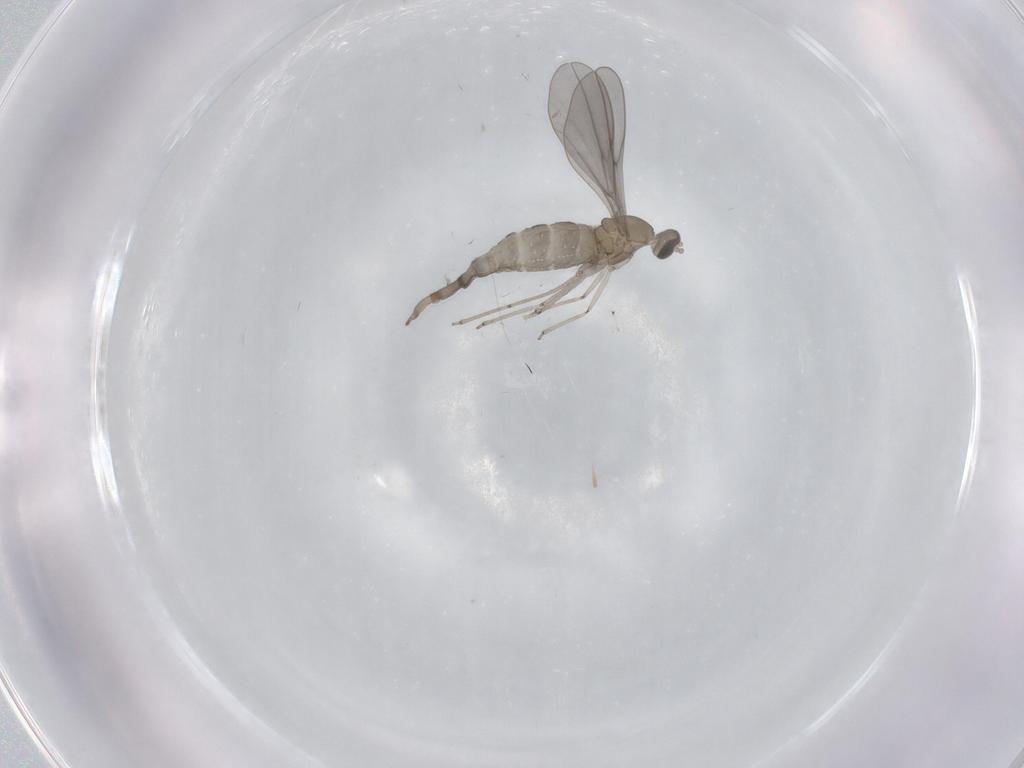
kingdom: Animalia
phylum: Arthropoda
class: Insecta
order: Diptera
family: Cecidomyiidae
